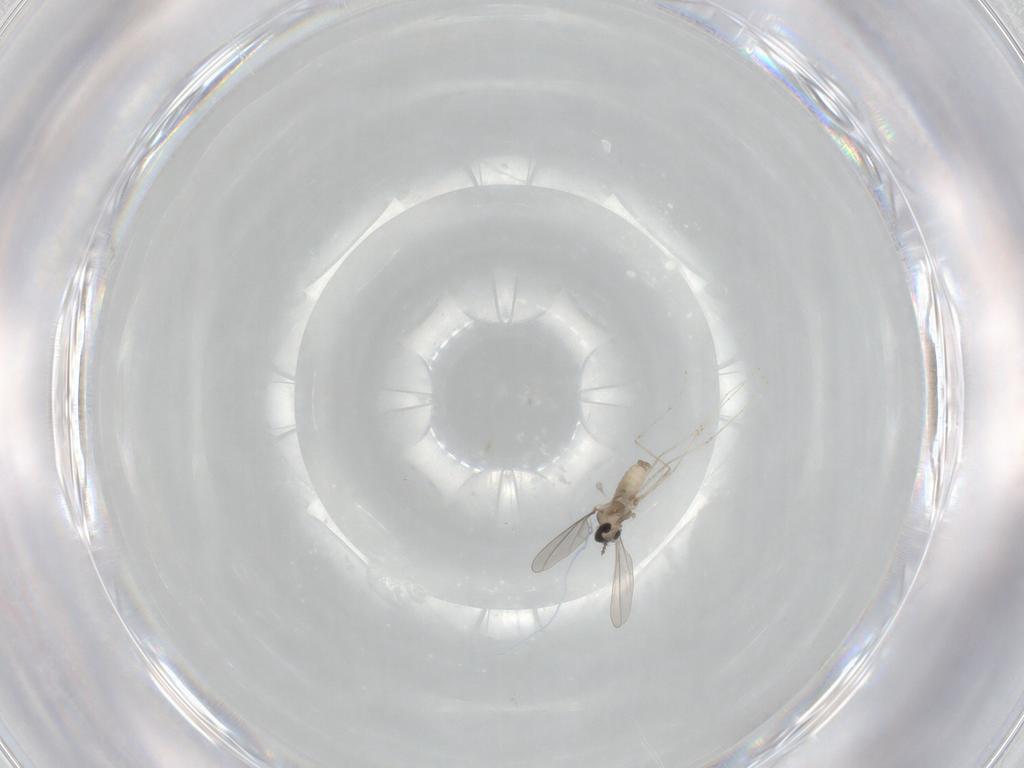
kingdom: Animalia
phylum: Arthropoda
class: Insecta
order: Diptera
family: Cecidomyiidae
